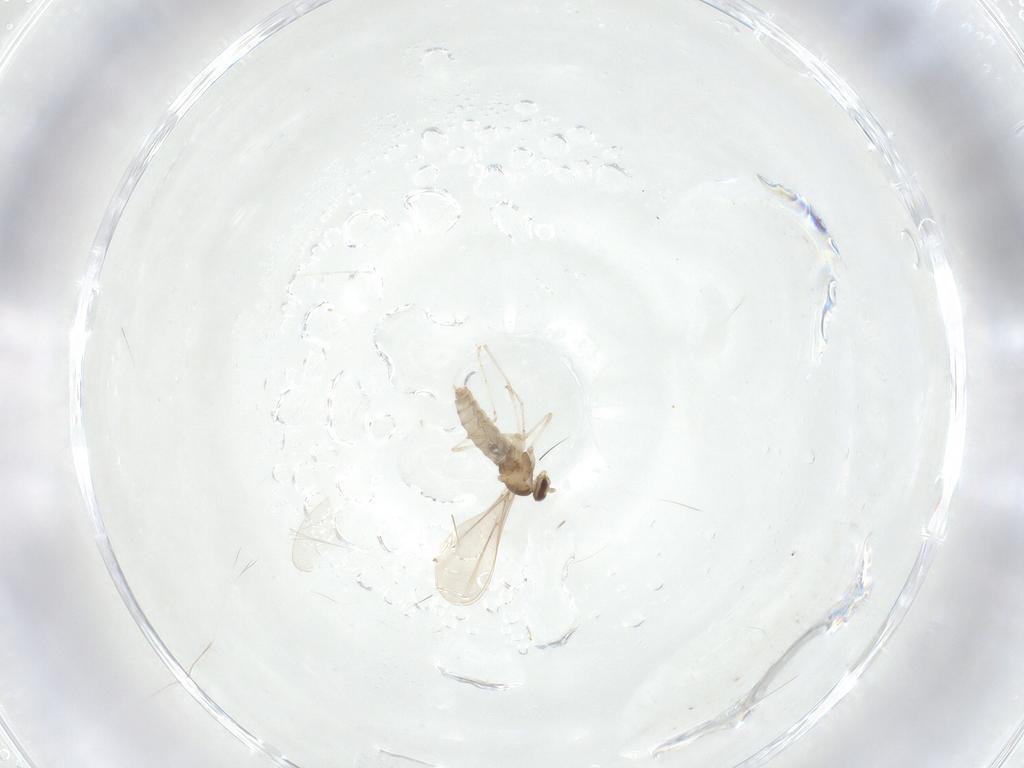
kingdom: Animalia
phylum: Arthropoda
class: Insecta
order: Diptera
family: Cecidomyiidae
